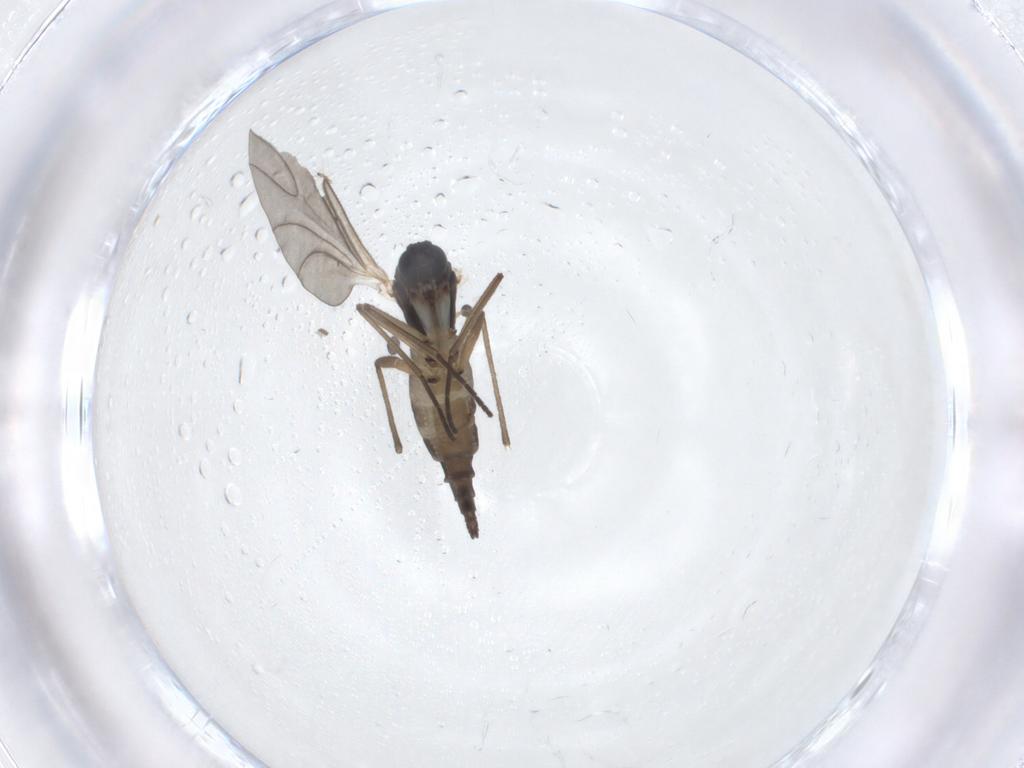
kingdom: Animalia
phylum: Arthropoda
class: Insecta
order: Diptera
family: Sciaridae
